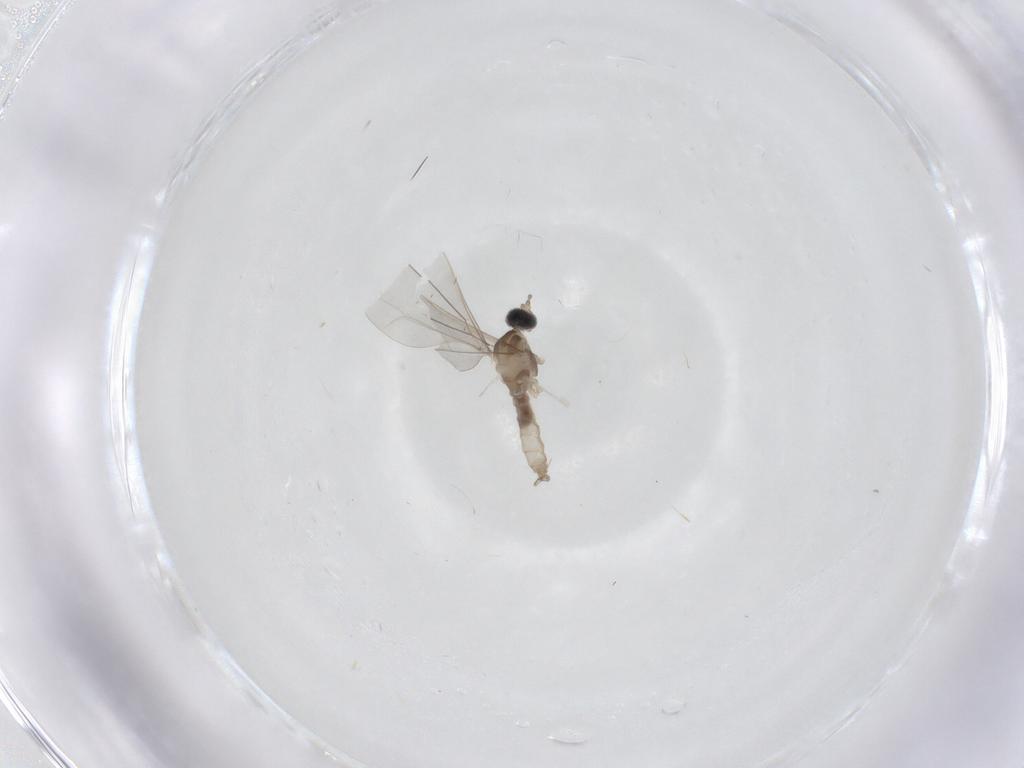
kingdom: Animalia
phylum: Arthropoda
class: Insecta
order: Diptera
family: Cecidomyiidae
